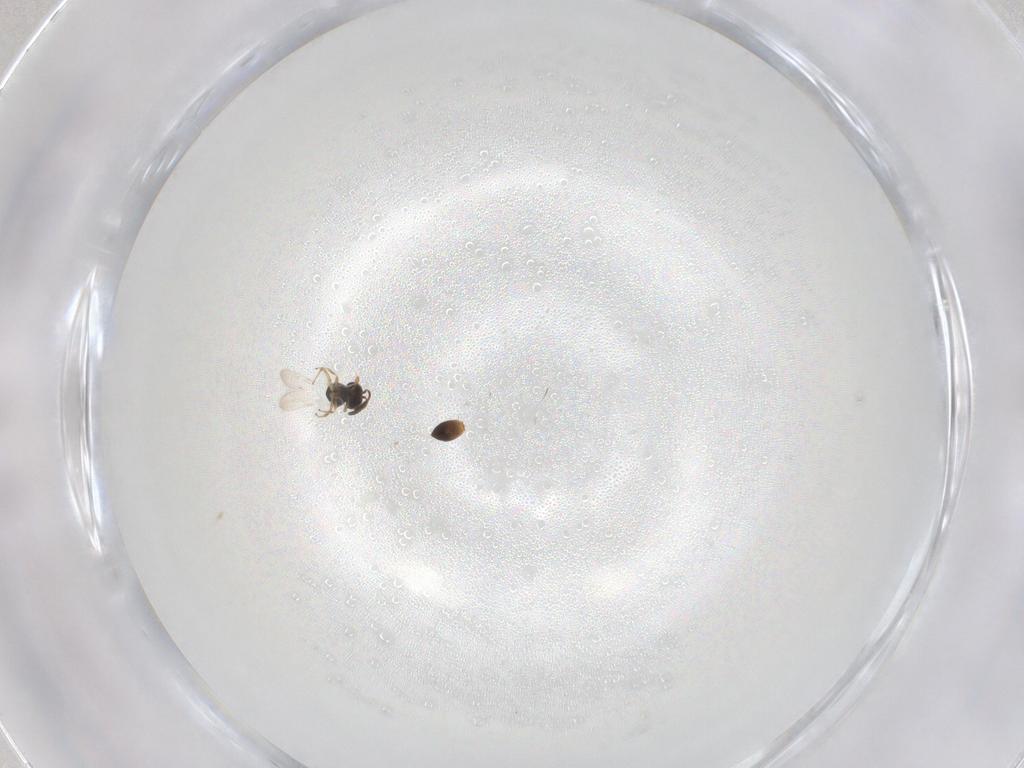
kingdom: Animalia
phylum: Arthropoda
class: Insecta
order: Hymenoptera
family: Scelionidae
